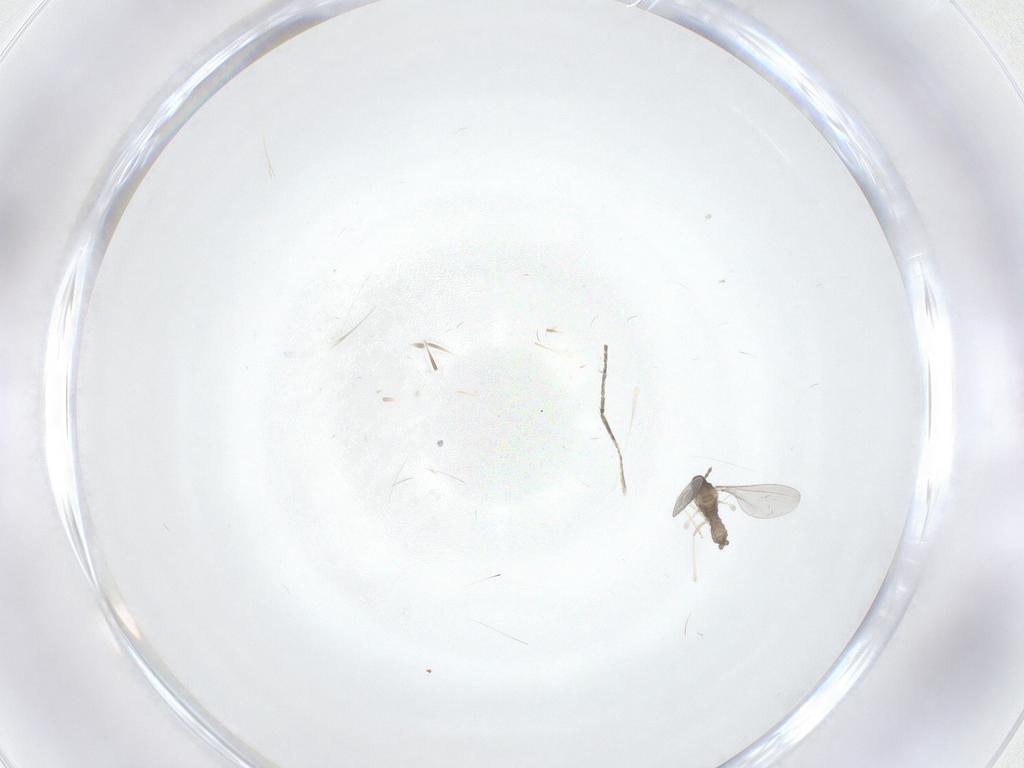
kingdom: Animalia
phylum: Arthropoda
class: Insecta
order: Diptera
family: Cecidomyiidae
